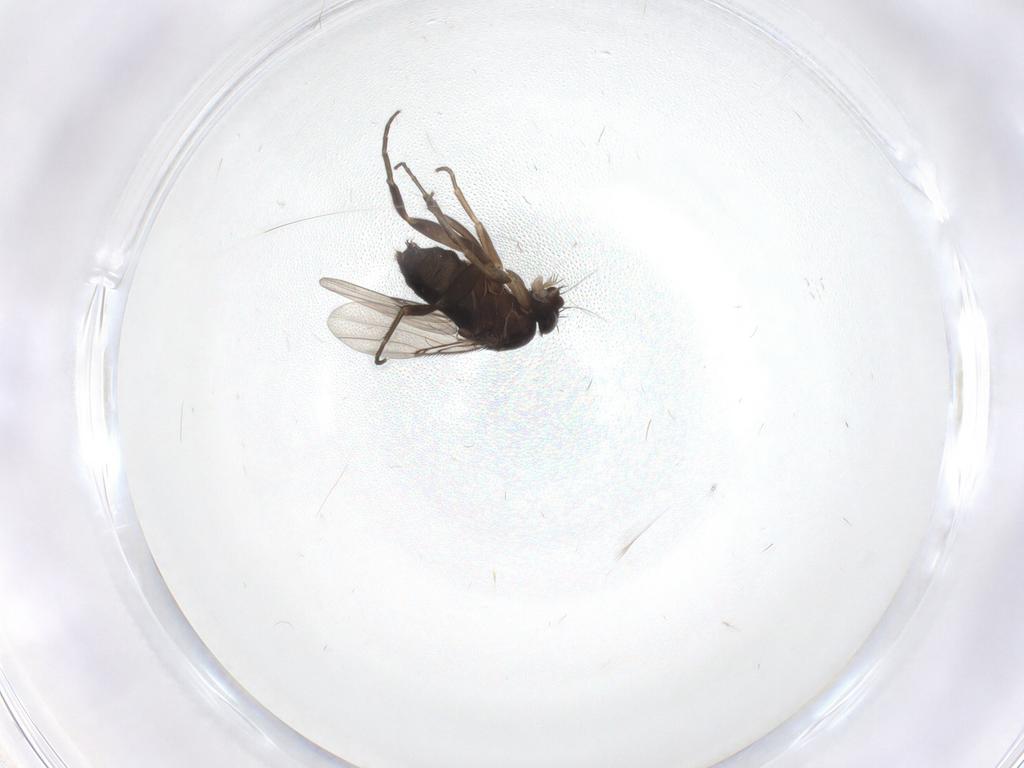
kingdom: Animalia
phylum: Arthropoda
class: Insecta
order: Diptera
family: Phoridae
